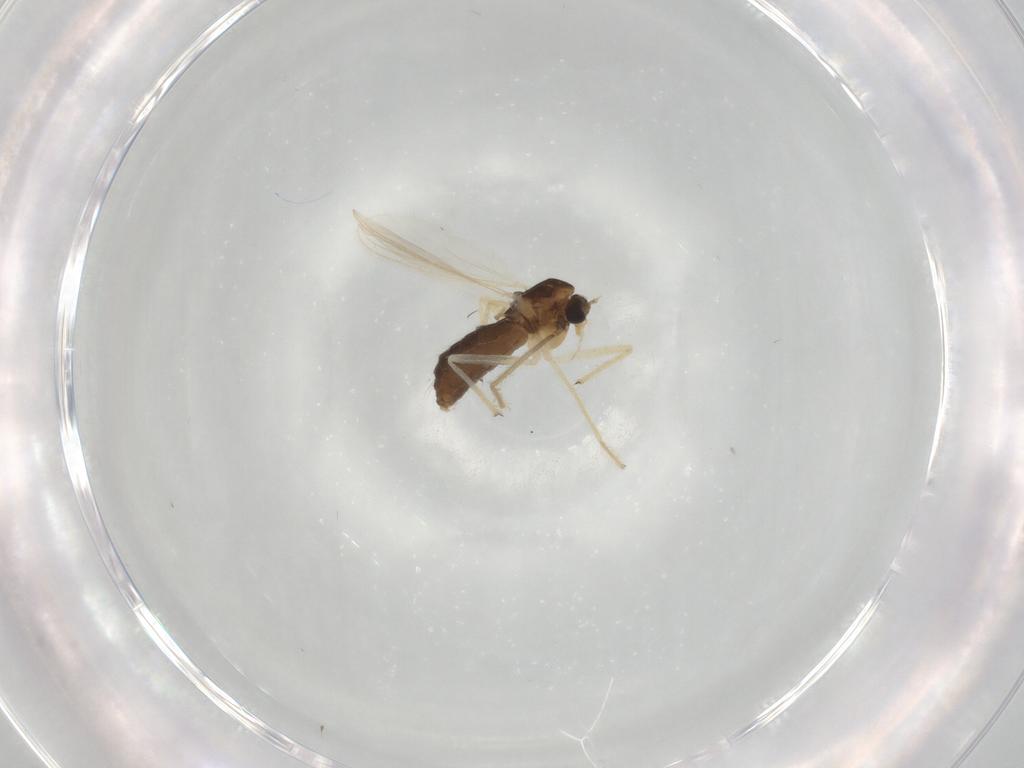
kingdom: Animalia
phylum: Arthropoda
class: Insecta
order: Diptera
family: Chironomidae
